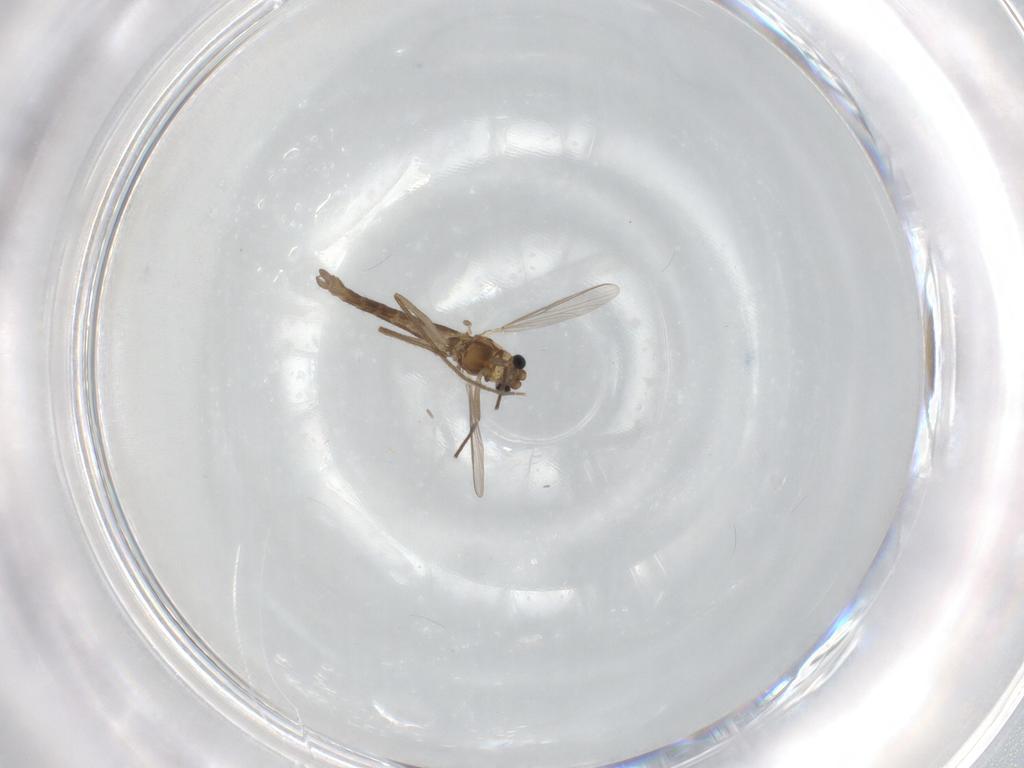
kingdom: Animalia
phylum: Arthropoda
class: Insecta
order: Diptera
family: Chironomidae
